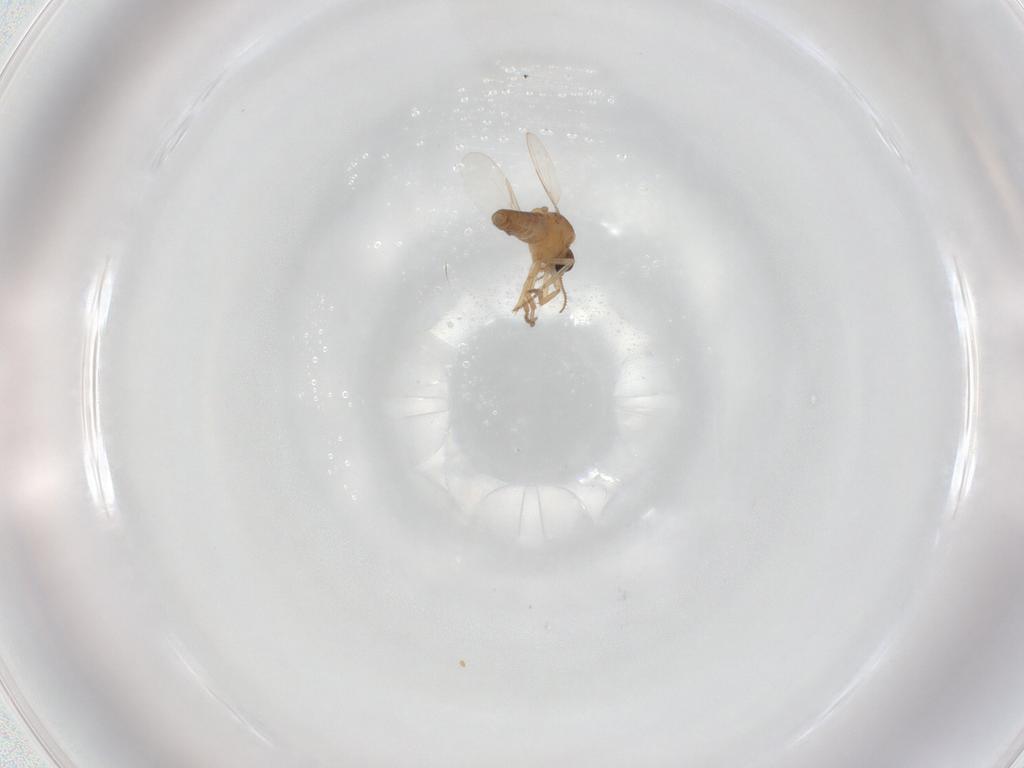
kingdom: Animalia
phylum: Arthropoda
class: Insecta
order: Diptera
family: Ceratopogonidae
